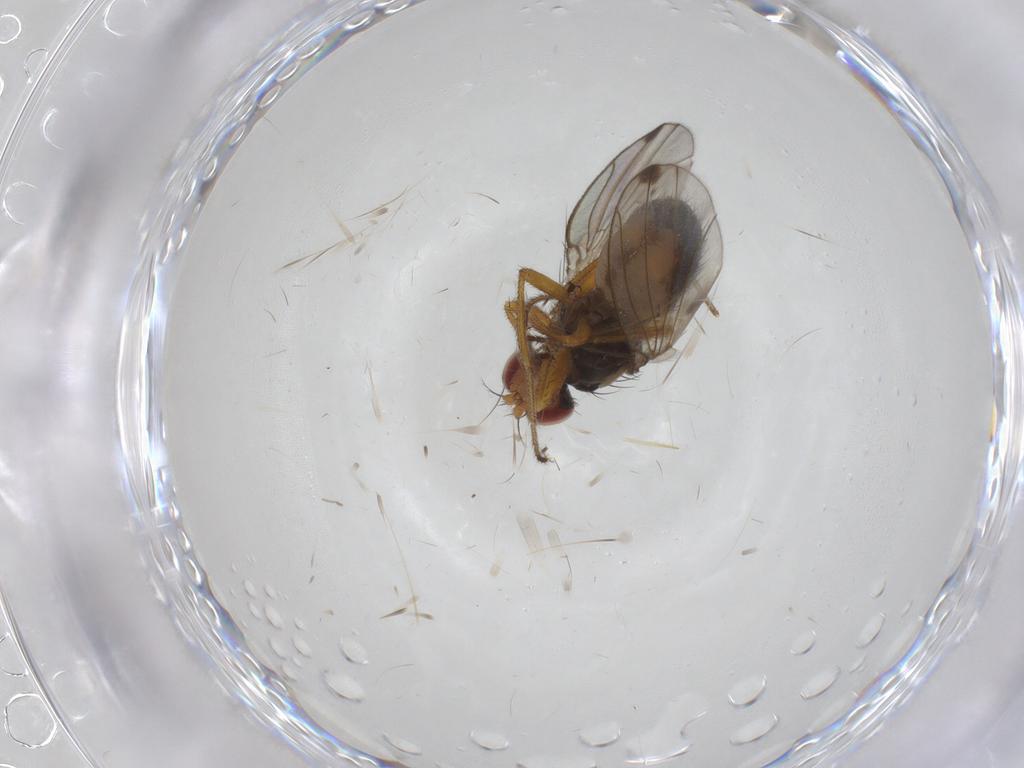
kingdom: Animalia
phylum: Arthropoda
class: Insecta
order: Diptera
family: Drosophilidae
